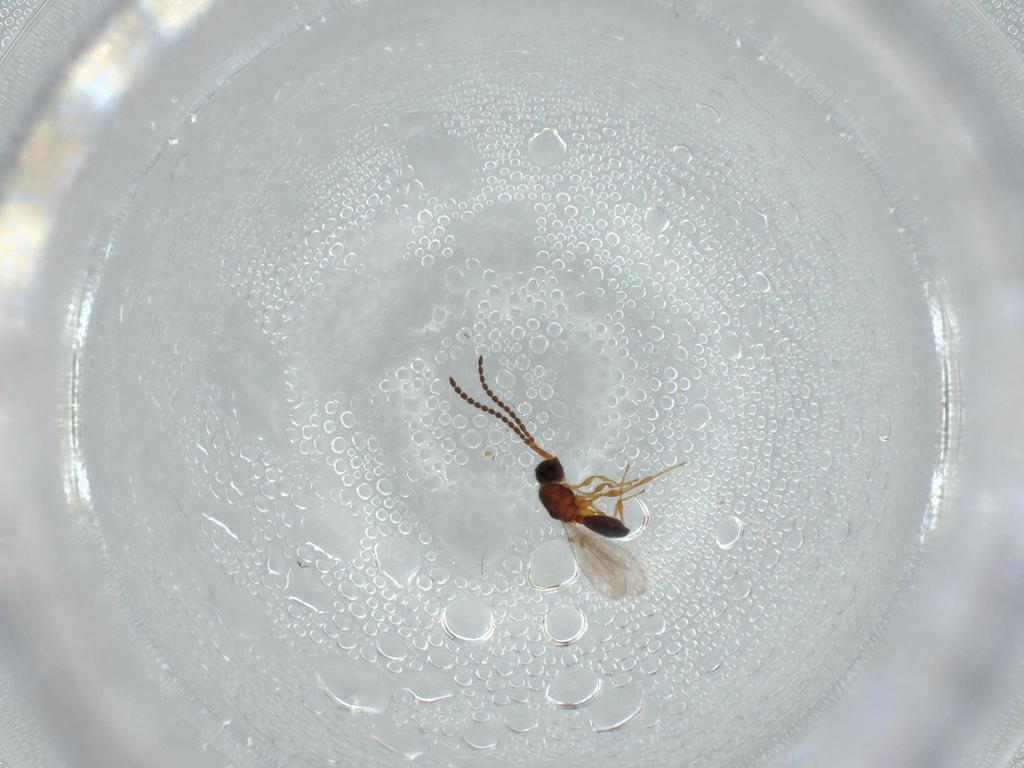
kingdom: Animalia
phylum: Arthropoda
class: Insecta
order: Hymenoptera
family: Diapriidae
